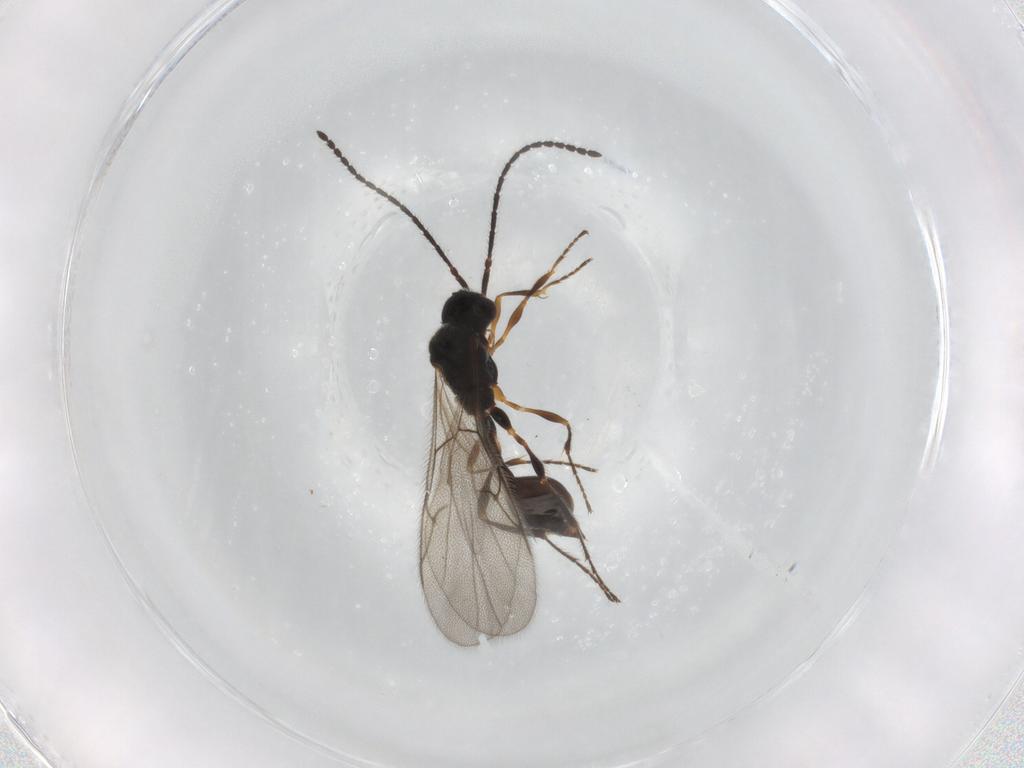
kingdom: Animalia
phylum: Arthropoda
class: Insecta
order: Hymenoptera
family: Diapriidae
